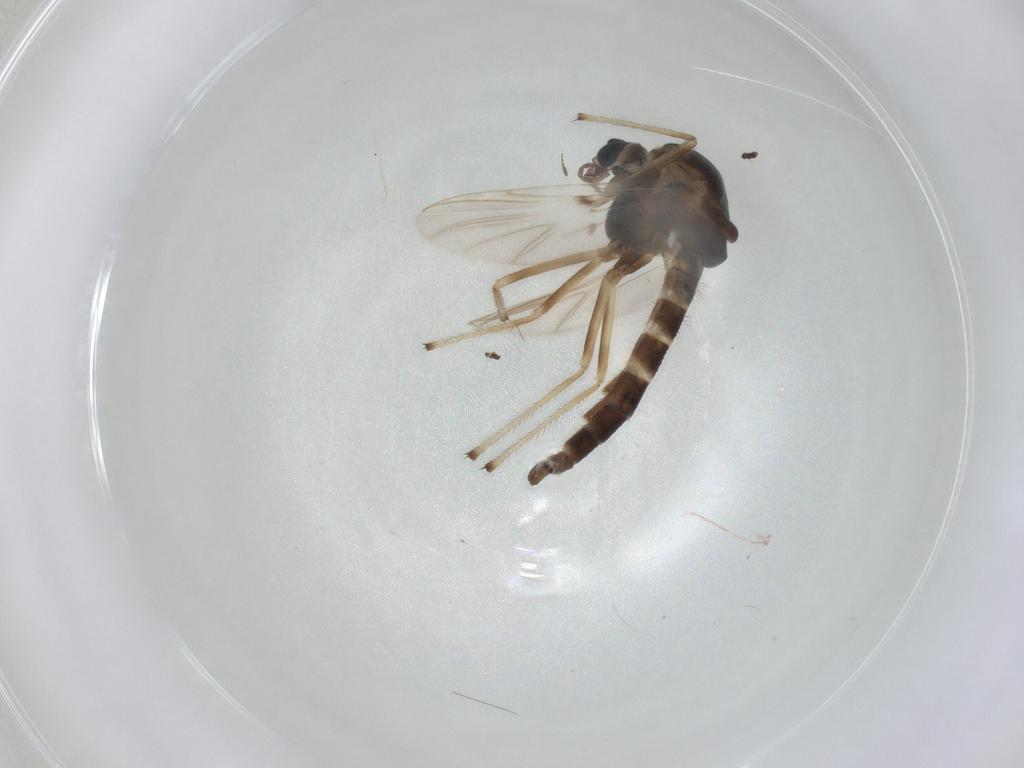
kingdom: Animalia
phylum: Arthropoda
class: Insecta
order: Diptera
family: Chironomidae
